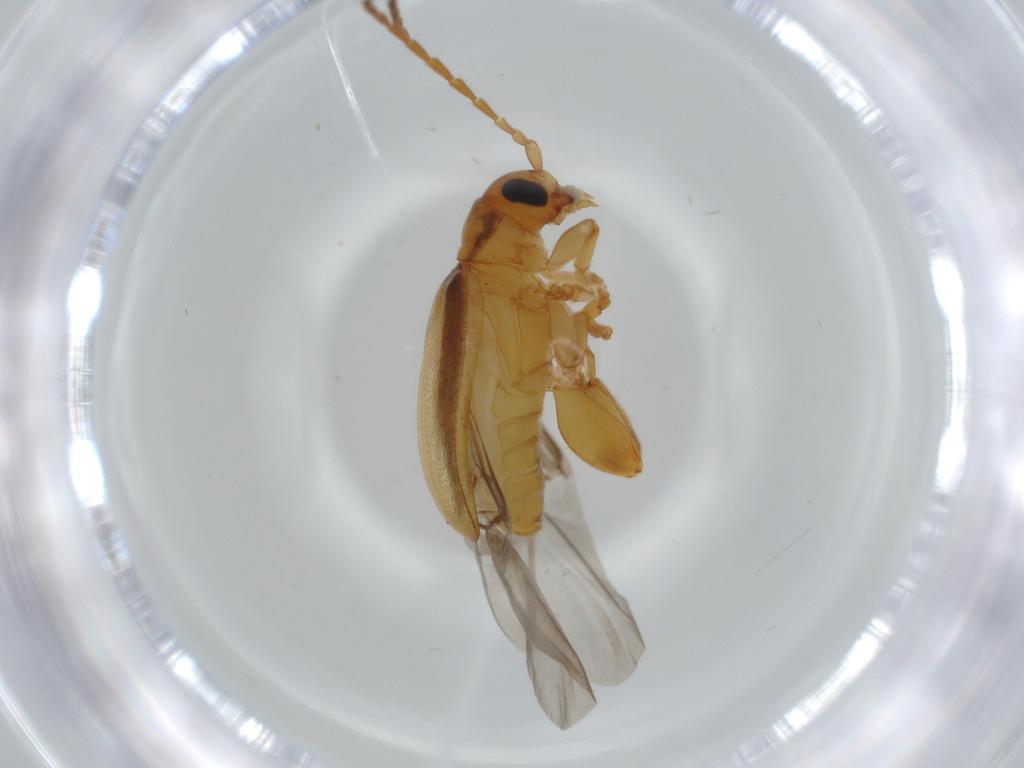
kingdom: Animalia
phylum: Arthropoda
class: Insecta
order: Coleoptera
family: Chrysomelidae
